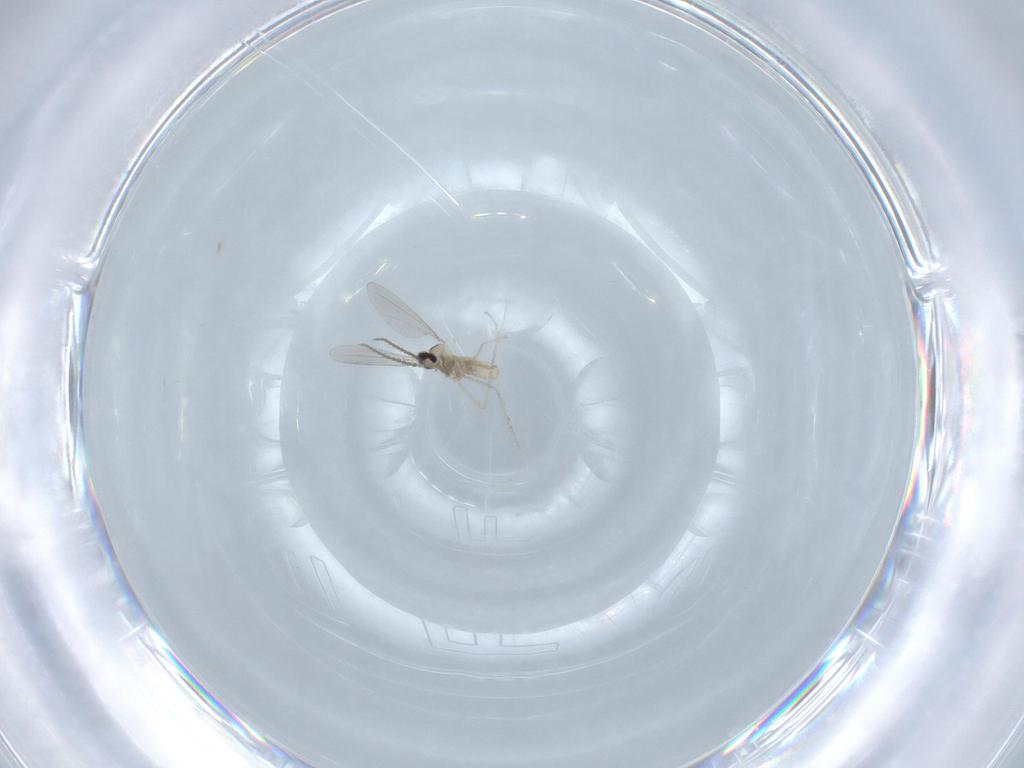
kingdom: Animalia
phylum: Arthropoda
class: Insecta
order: Diptera
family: Cecidomyiidae
